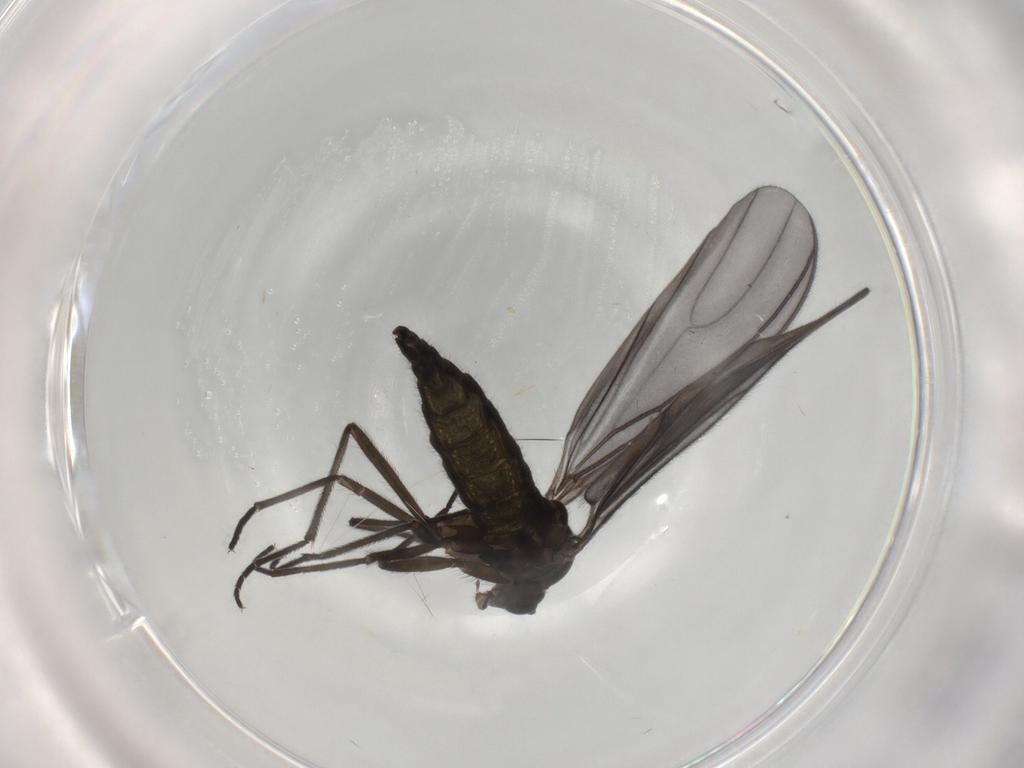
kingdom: Animalia
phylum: Arthropoda
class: Insecta
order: Diptera
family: Sciaridae
